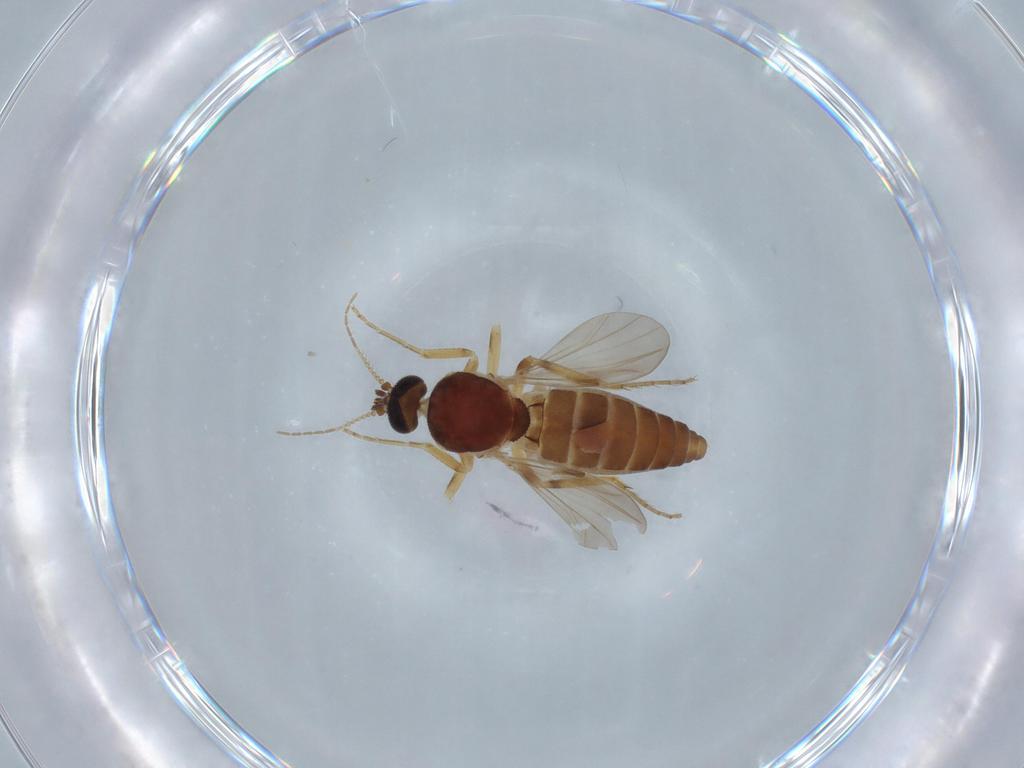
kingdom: Animalia
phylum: Arthropoda
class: Insecta
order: Diptera
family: Ceratopogonidae
